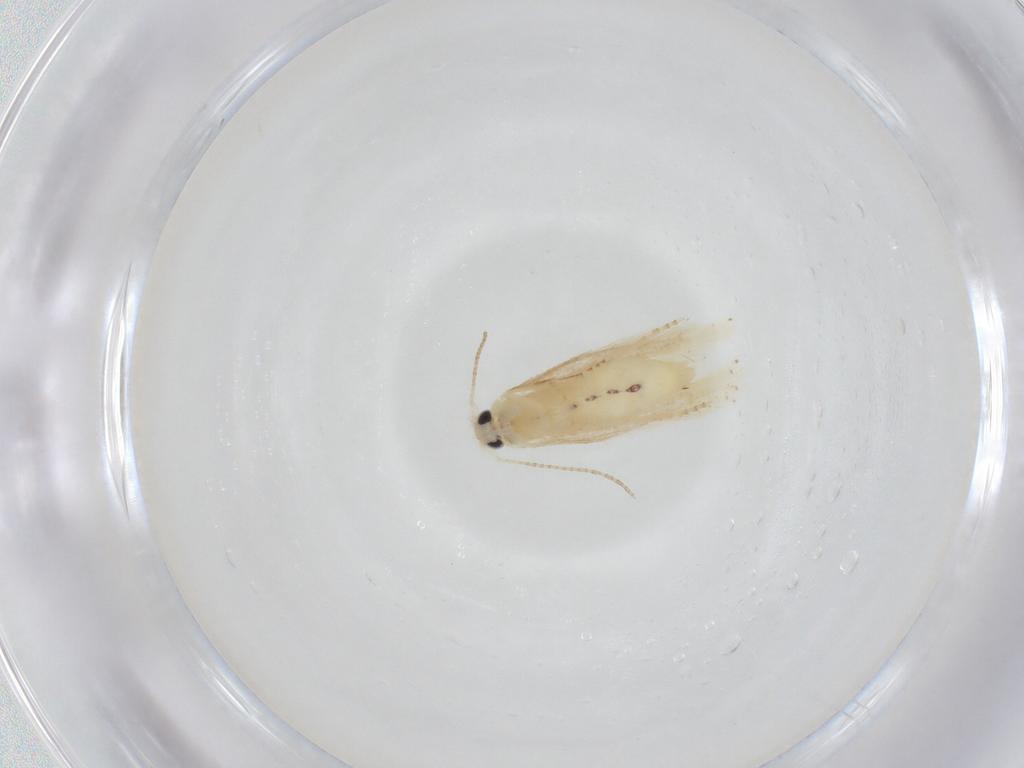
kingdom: Animalia
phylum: Arthropoda
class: Insecta
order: Lepidoptera
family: Depressariidae
